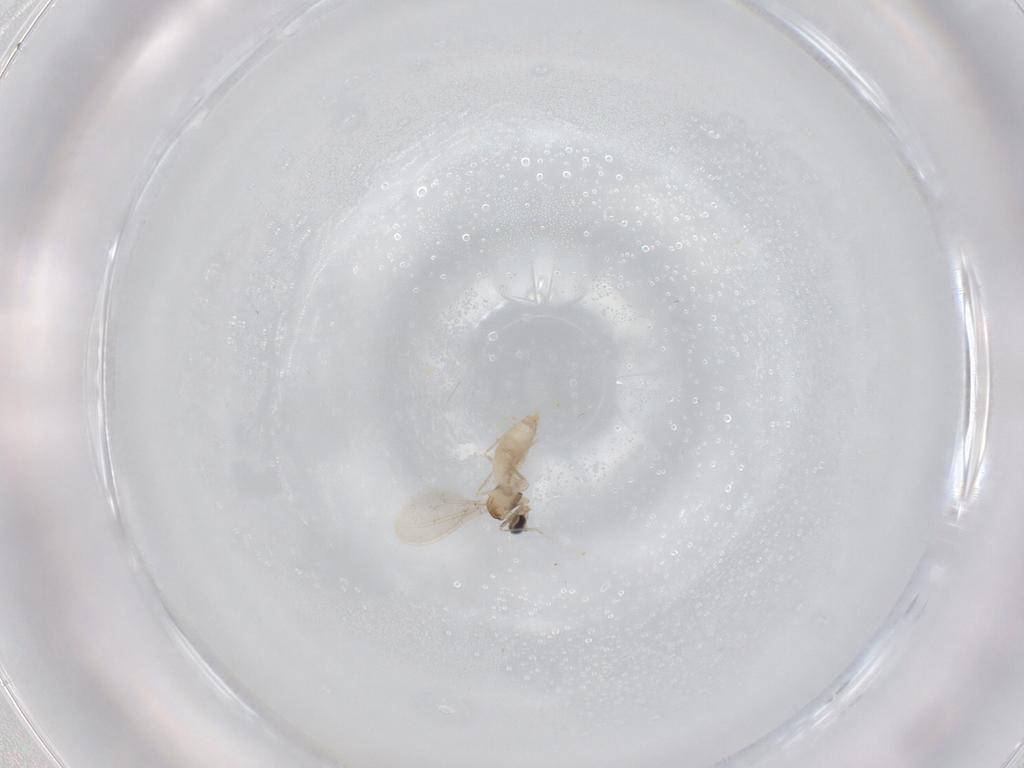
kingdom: Animalia
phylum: Arthropoda
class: Insecta
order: Diptera
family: Cecidomyiidae
